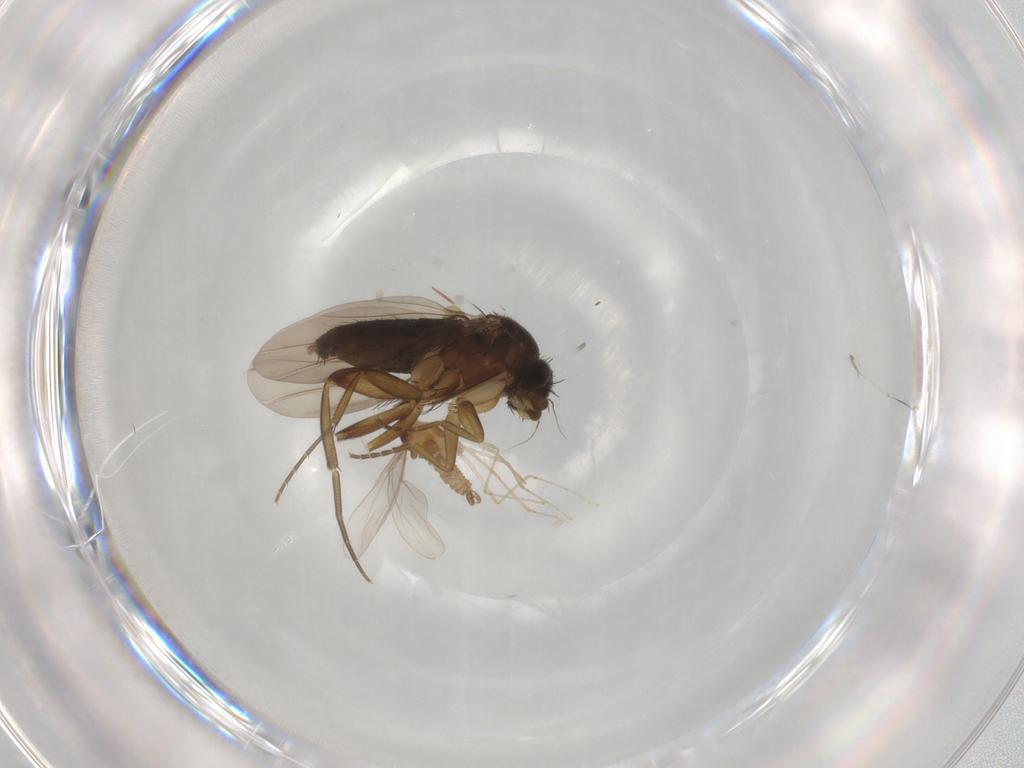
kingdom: Animalia
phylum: Arthropoda
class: Insecta
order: Diptera
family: Phoridae
